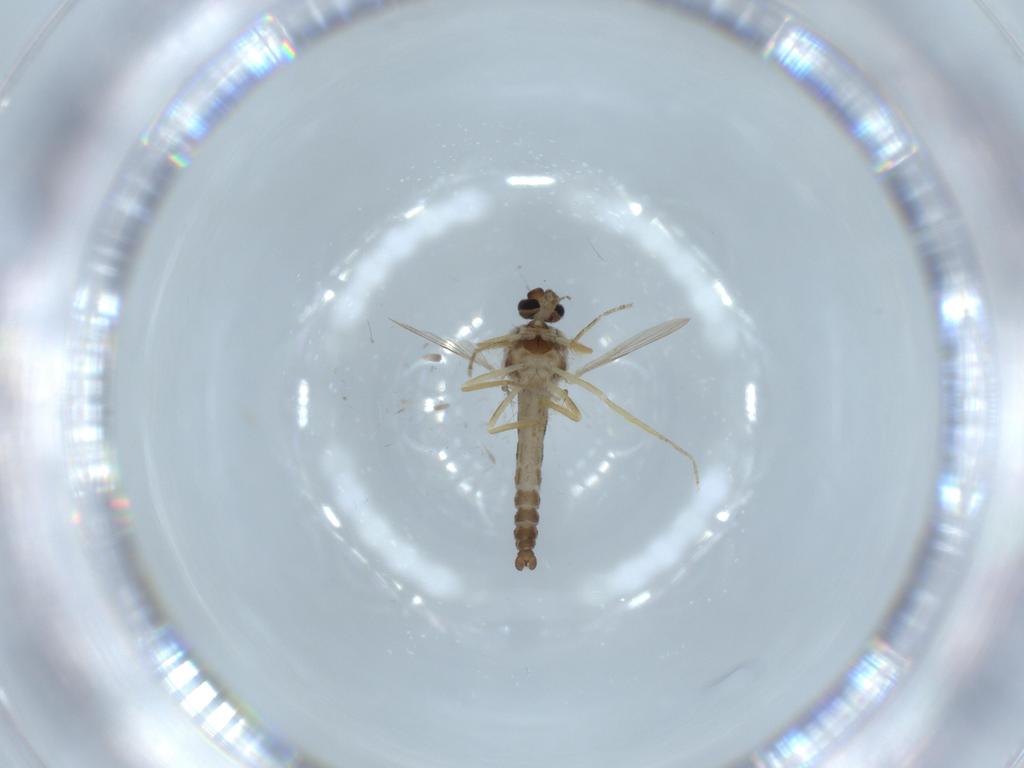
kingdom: Animalia
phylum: Arthropoda
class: Insecta
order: Diptera
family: Ceratopogonidae
